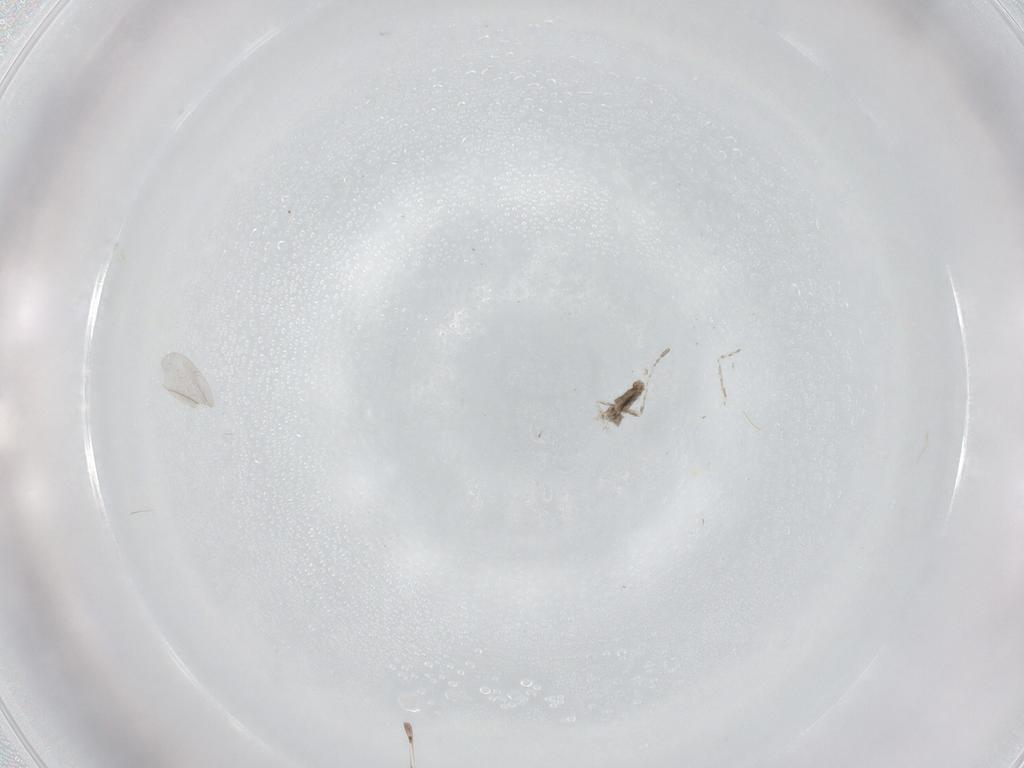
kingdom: Animalia
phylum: Arthropoda
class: Insecta
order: Diptera
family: Cecidomyiidae
